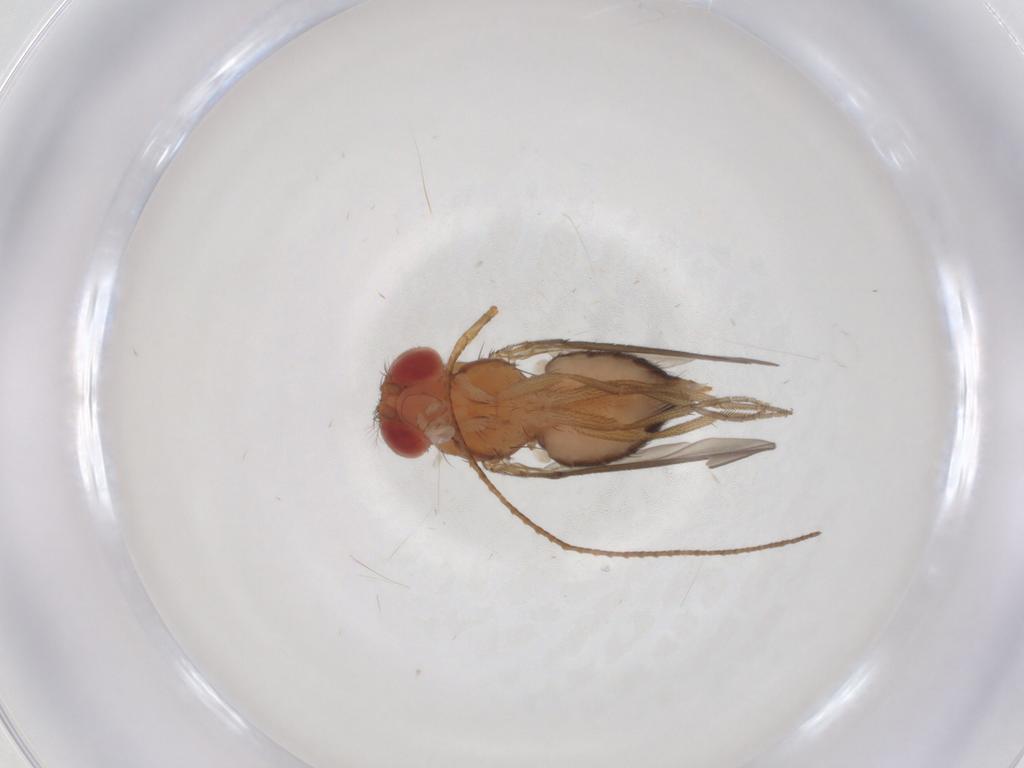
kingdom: Animalia
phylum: Arthropoda
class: Insecta
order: Diptera
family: Drosophilidae
